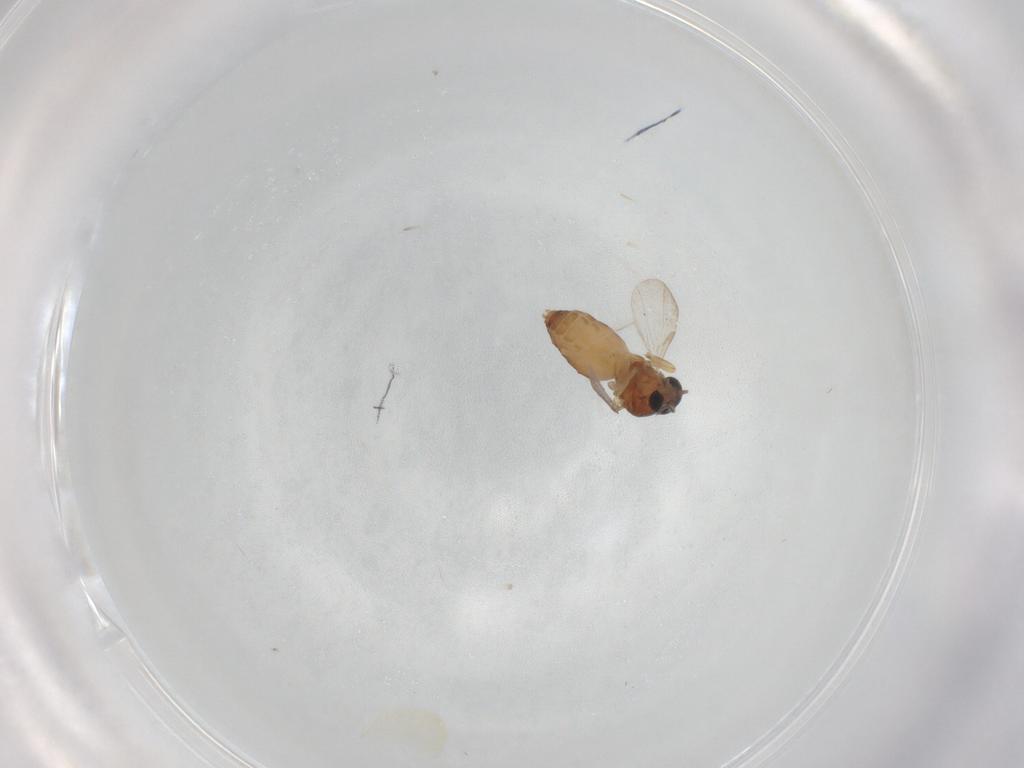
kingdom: Animalia
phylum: Arthropoda
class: Insecta
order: Diptera
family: Ceratopogonidae
